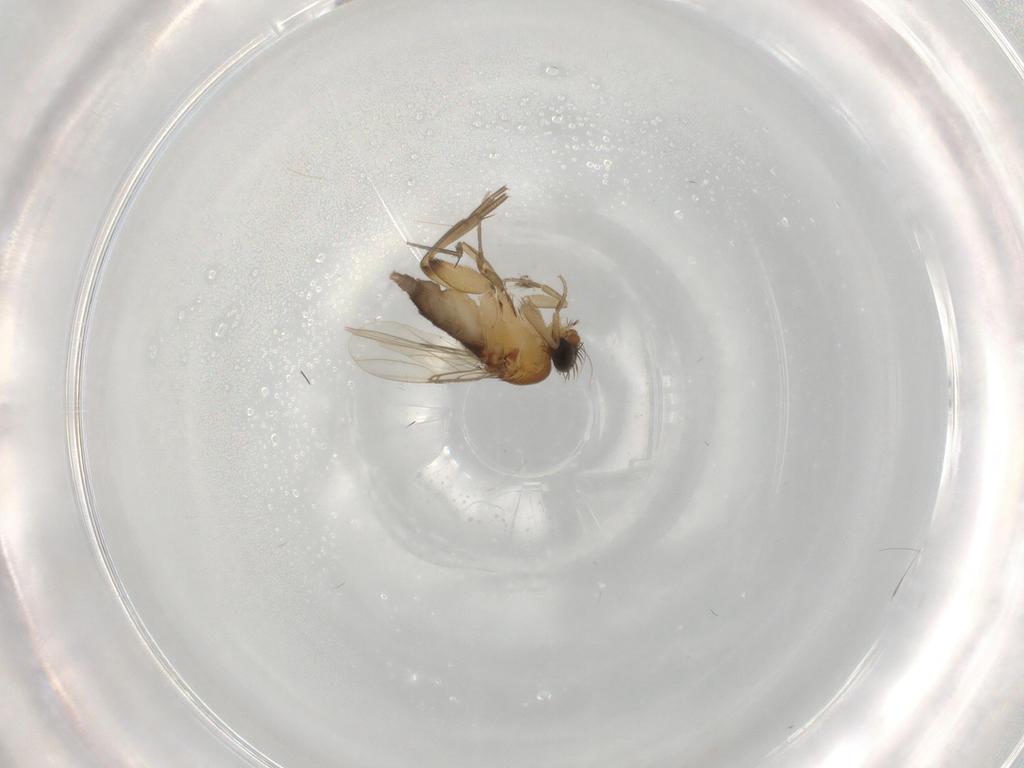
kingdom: Animalia
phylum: Arthropoda
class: Insecta
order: Diptera
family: Phoridae
